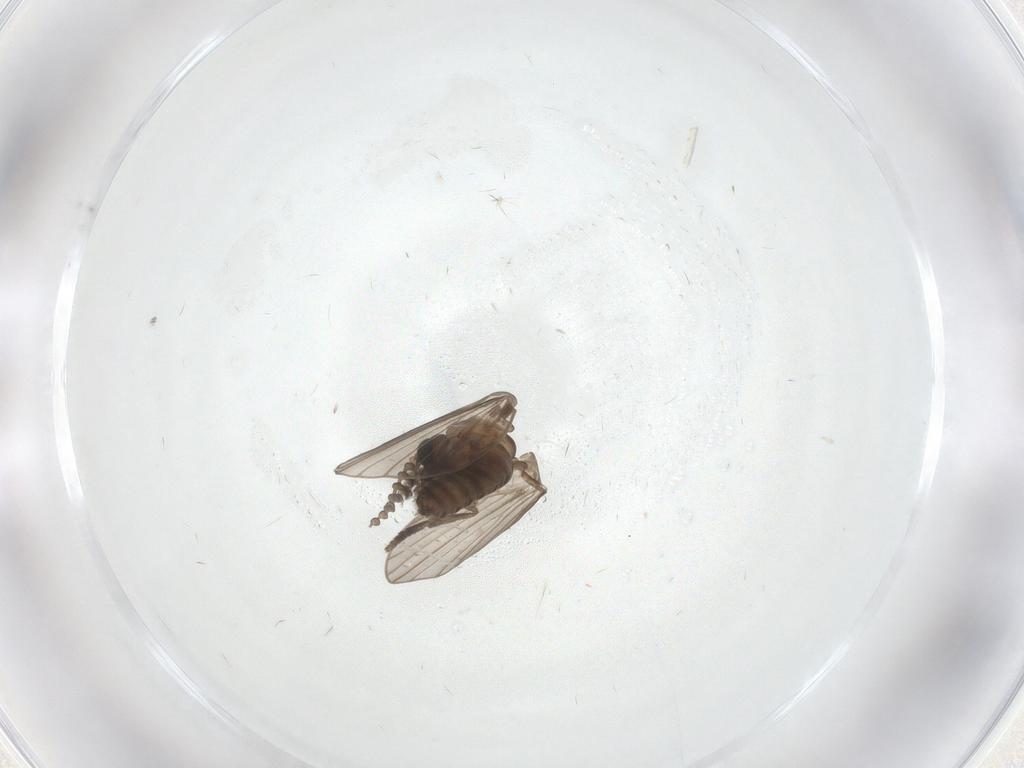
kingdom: Animalia
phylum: Arthropoda
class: Insecta
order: Diptera
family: Psychodidae
